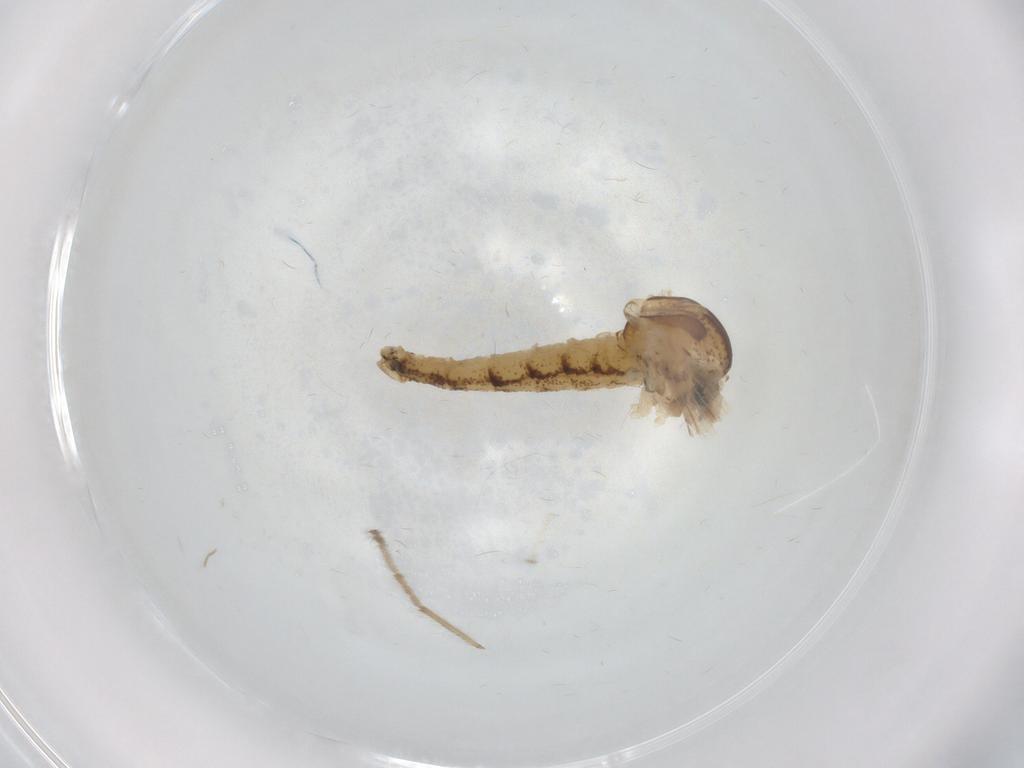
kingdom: Animalia
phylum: Arthropoda
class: Insecta
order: Diptera
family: Chaoboridae
